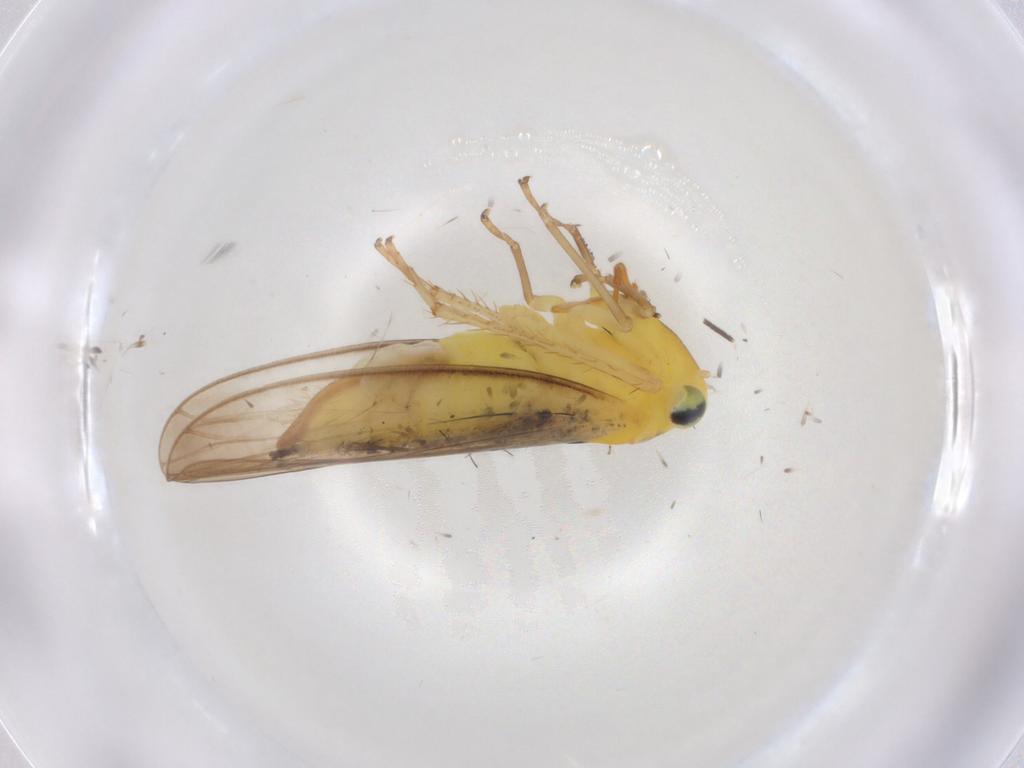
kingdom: Animalia
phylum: Arthropoda
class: Insecta
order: Hemiptera
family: Cicadellidae
